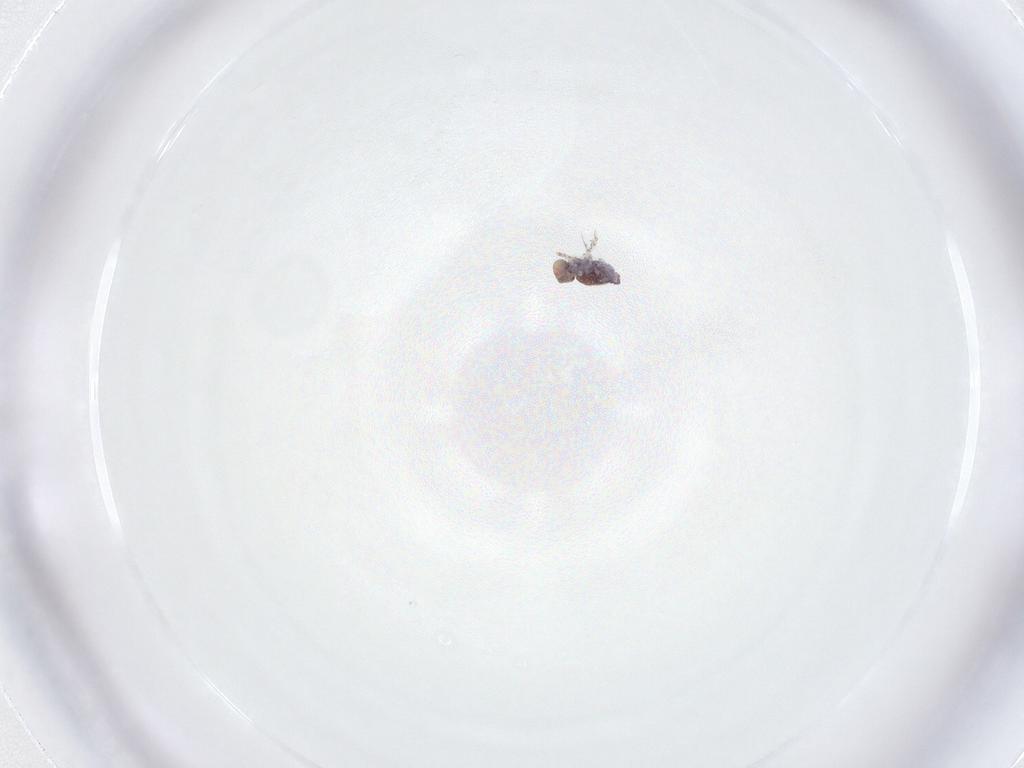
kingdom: Animalia
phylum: Arthropoda
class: Collembola
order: Symphypleona
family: Bourletiellidae
